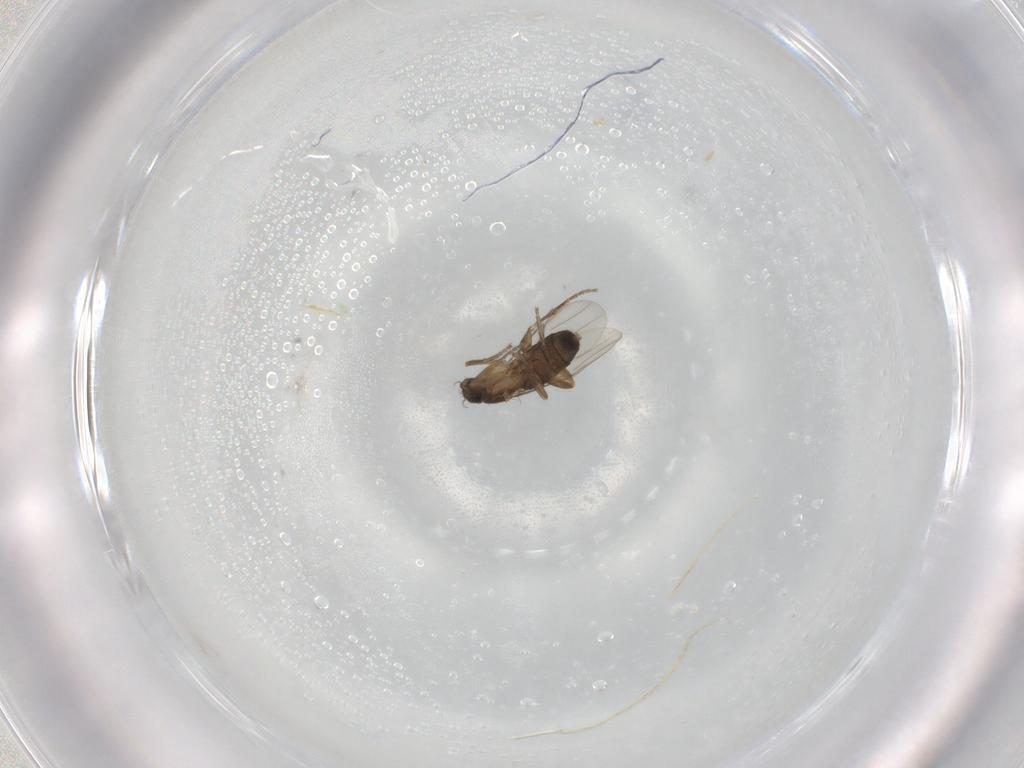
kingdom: Animalia
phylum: Arthropoda
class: Insecta
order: Diptera
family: Phoridae
